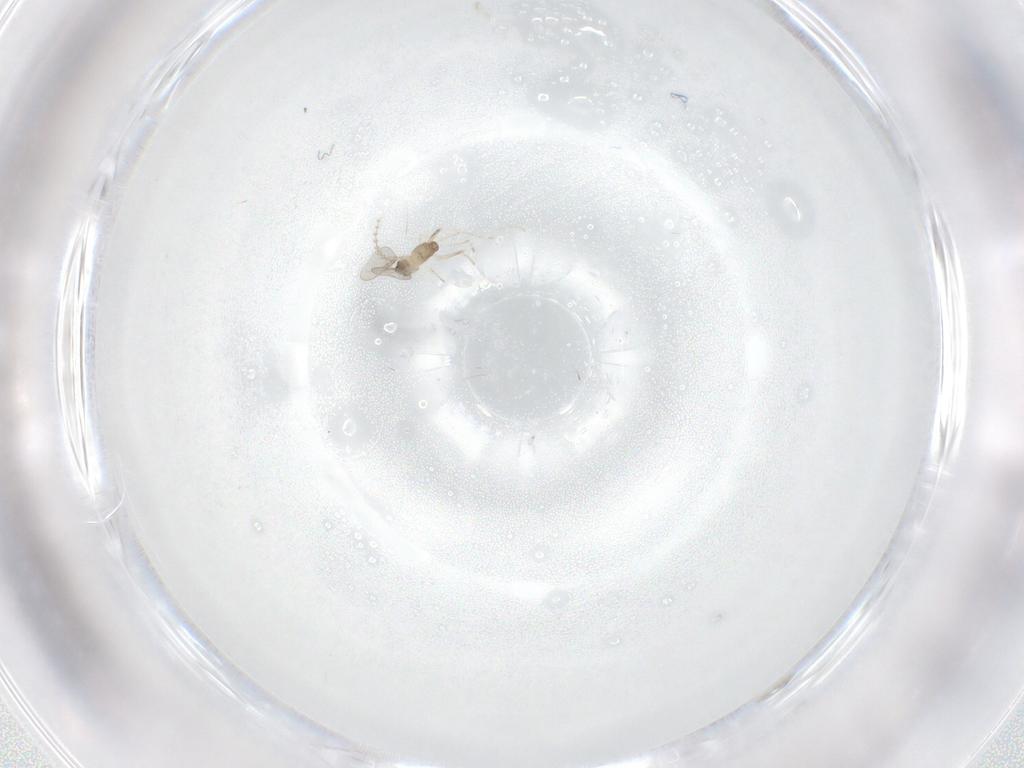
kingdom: Animalia
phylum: Arthropoda
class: Insecta
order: Diptera
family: Cecidomyiidae
